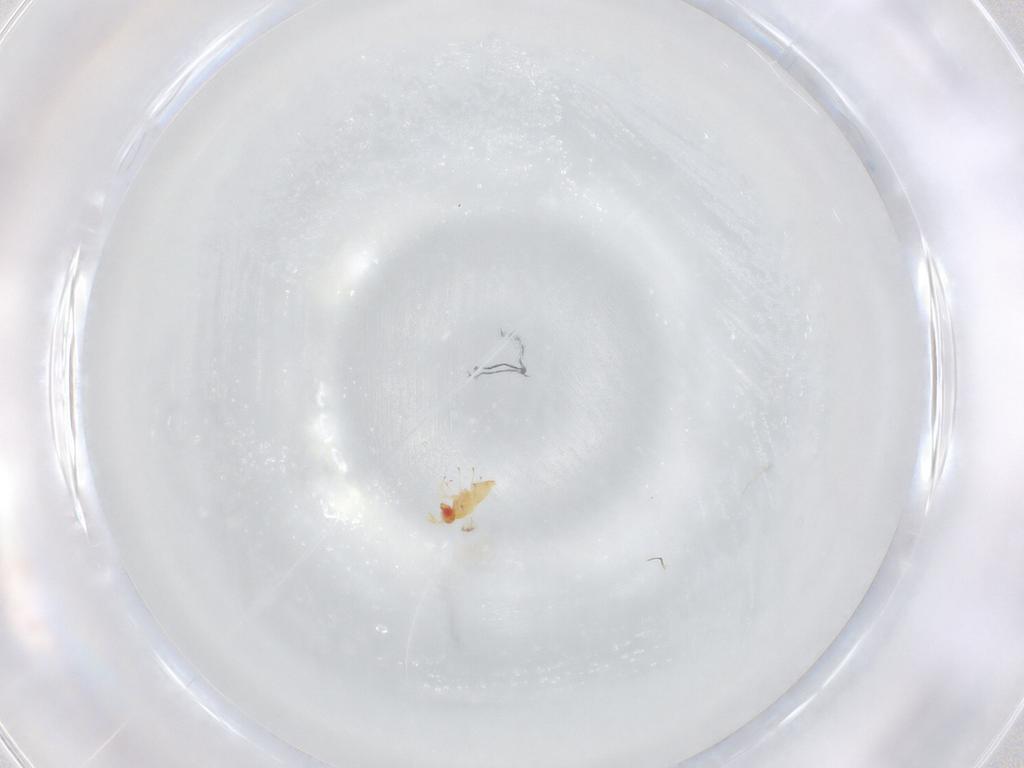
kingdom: Animalia
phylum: Arthropoda
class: Insecta
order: Hymenoptera
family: Trichogrammatidae
